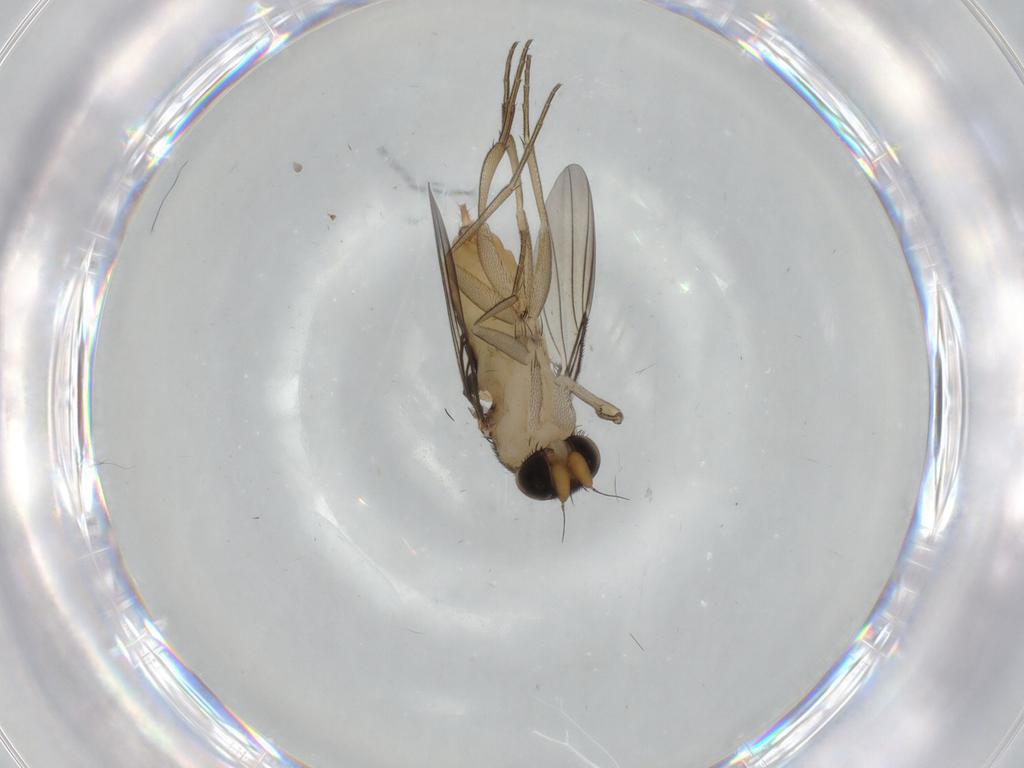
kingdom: Animalia
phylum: Arthropoda
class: Insecta
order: Diptera
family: Phoridae
